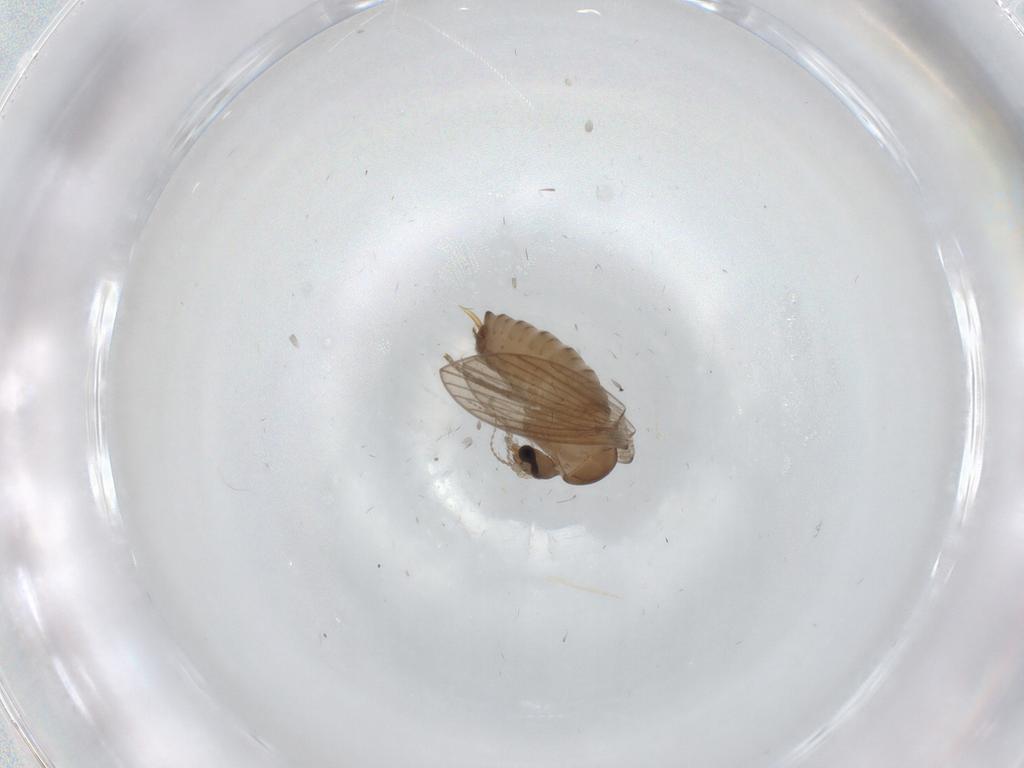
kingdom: Animalia
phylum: Arthropoda
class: Insecta
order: Diptera
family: Psychodidae
